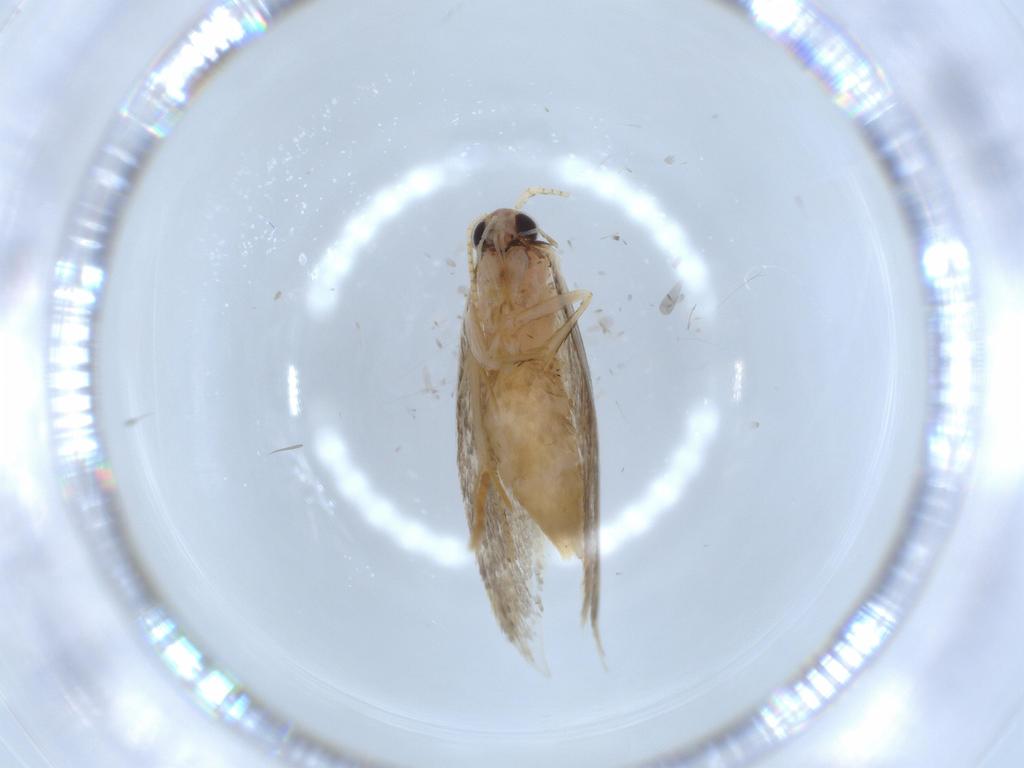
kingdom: Animalia
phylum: Arthropoda
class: Insecta
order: Lepidoptera
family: Tineidae
